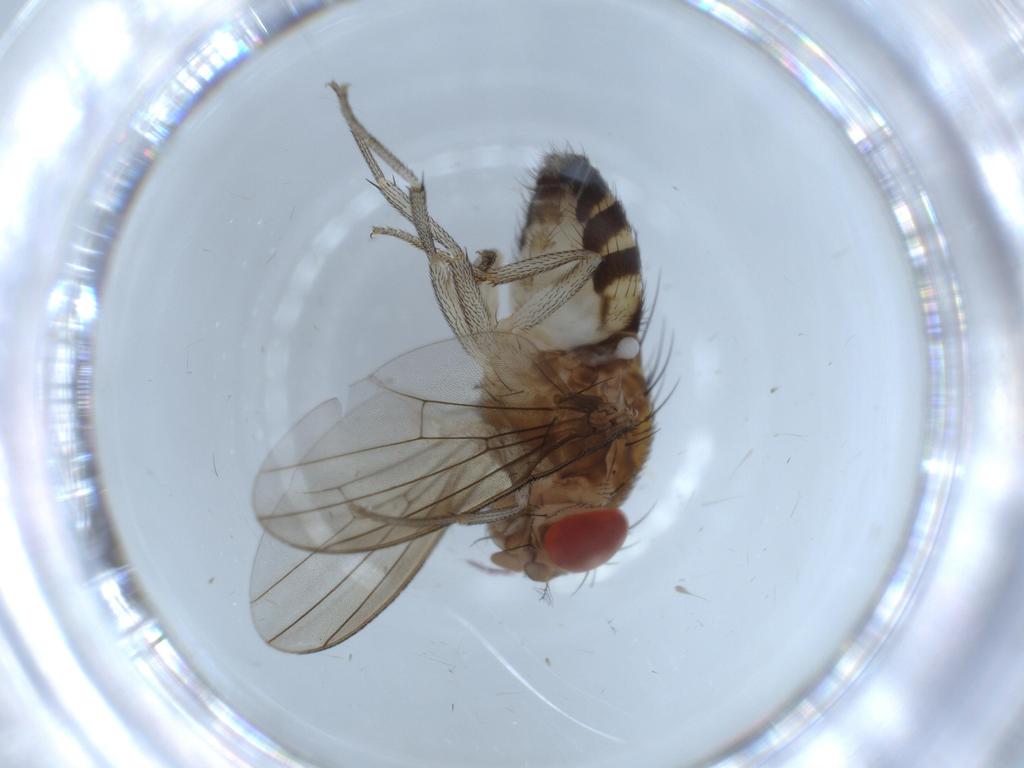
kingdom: Animalia
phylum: Arthropoda
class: Insecta
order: Diptera
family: Drosophilidae
